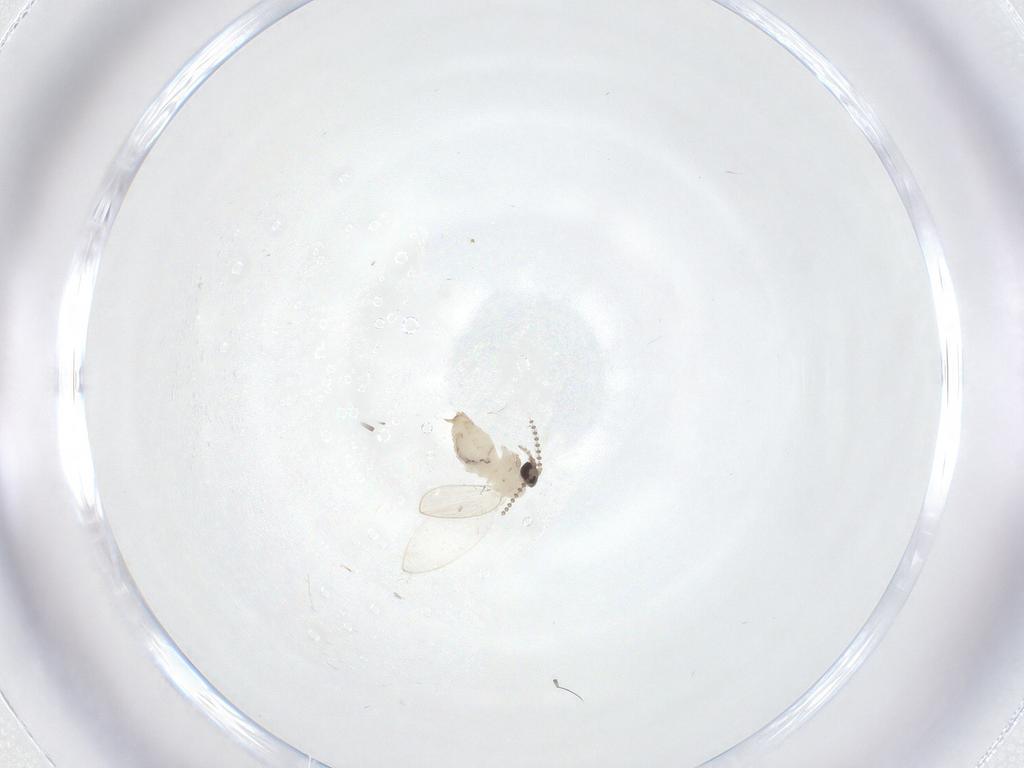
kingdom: Animalia
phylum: Arthropoda
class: Insecta
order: Diptera
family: Psychodidae
